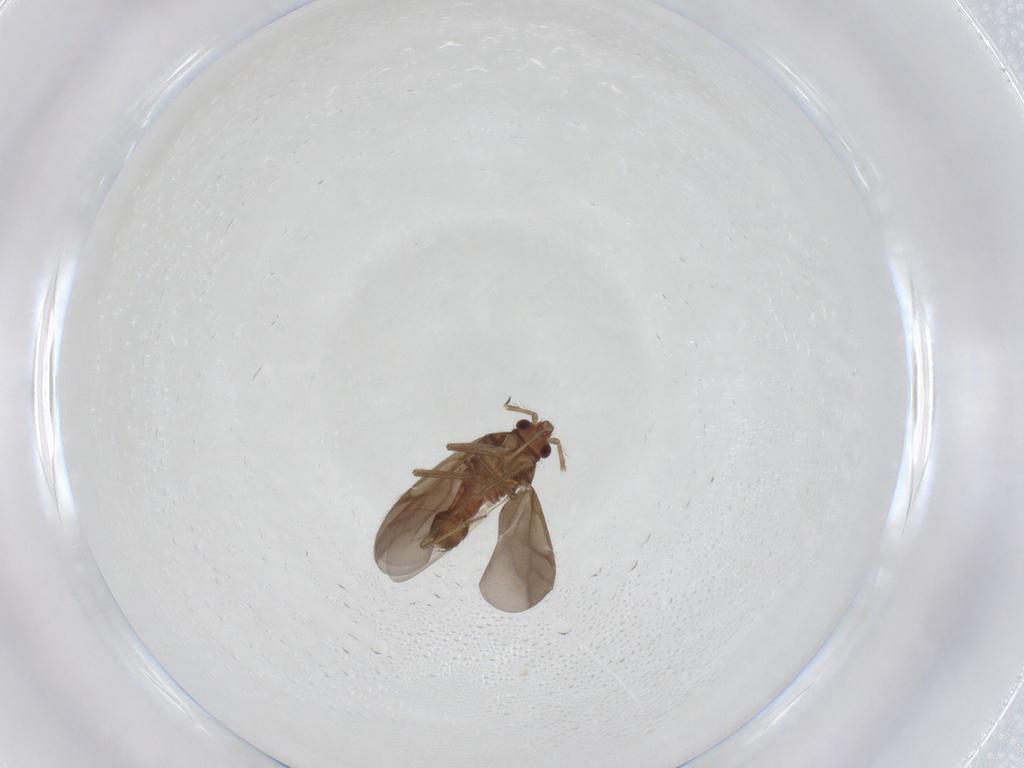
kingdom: Animalia
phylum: Arthropoda
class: Insecta
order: Hemiptera
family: Ceratocombidae
